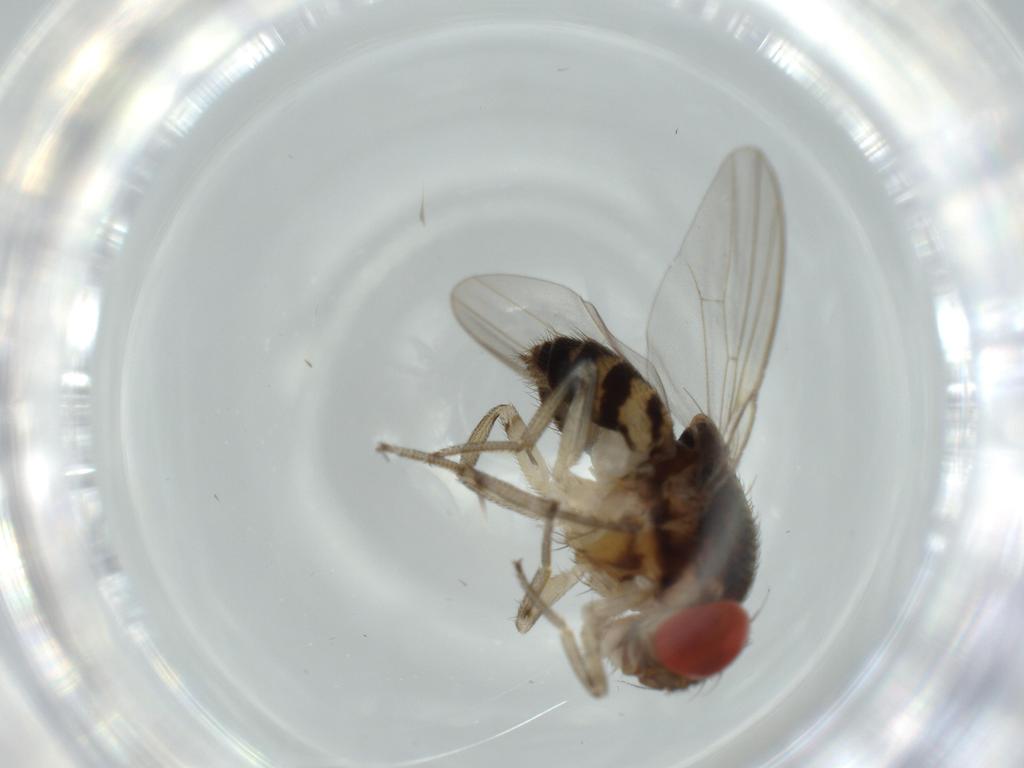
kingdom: Animalia
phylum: Arthropoda
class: Insecta
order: Diptera
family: Drosophilidae
